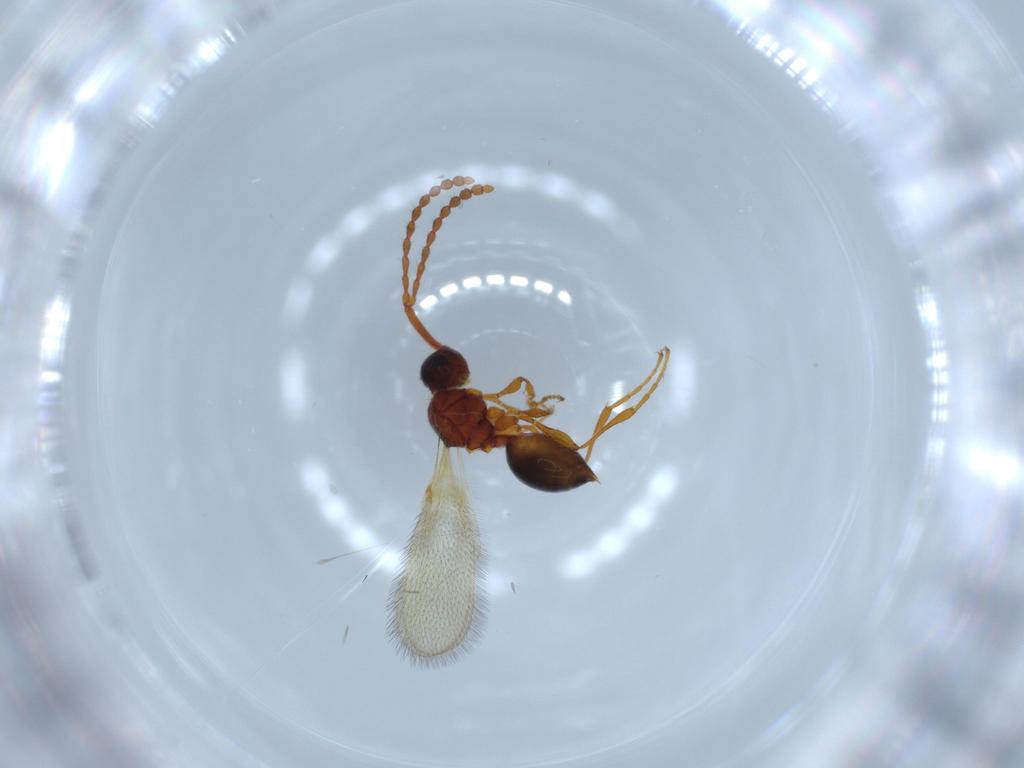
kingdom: Animalia
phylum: Arthropoda
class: Insecta
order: Hymenoptera
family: Diapriidae
